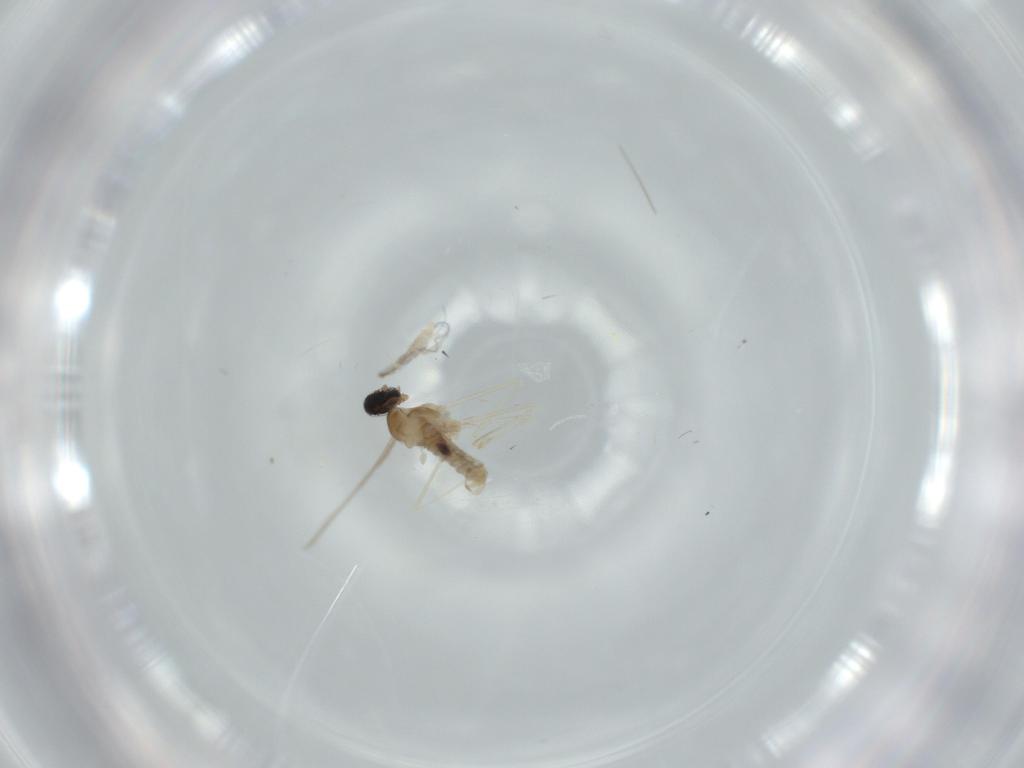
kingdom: Animalia
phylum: Arthropoda
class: Insecta
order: Diptera
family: Cecidomyiidae
